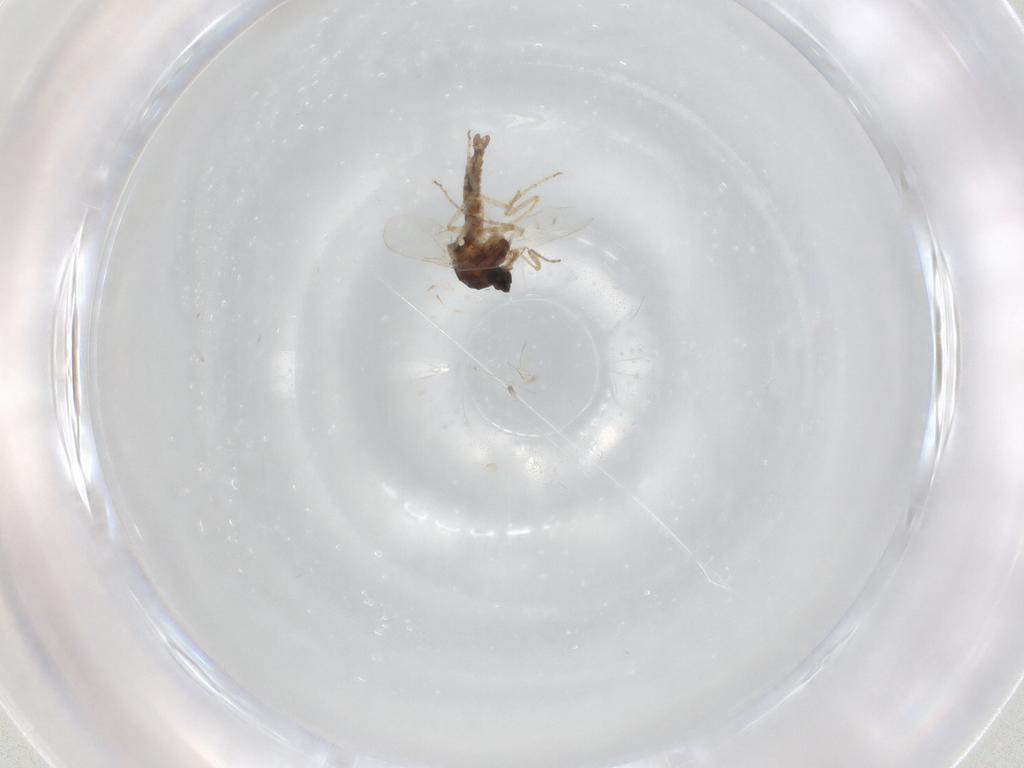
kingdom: Animalia
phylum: Arthropoda
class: Insecta
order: Diptera
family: Ceratopogonidae
